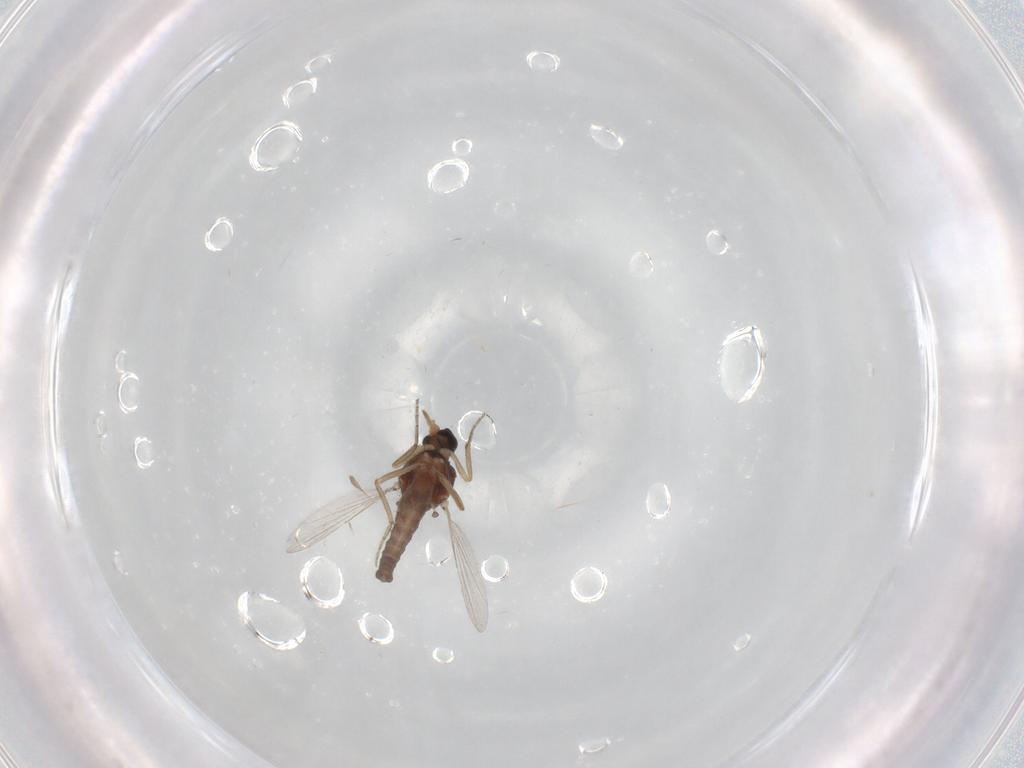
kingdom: Animalia
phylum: Arthropoda
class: Insecta
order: Diptera
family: Ceratopogonidae
